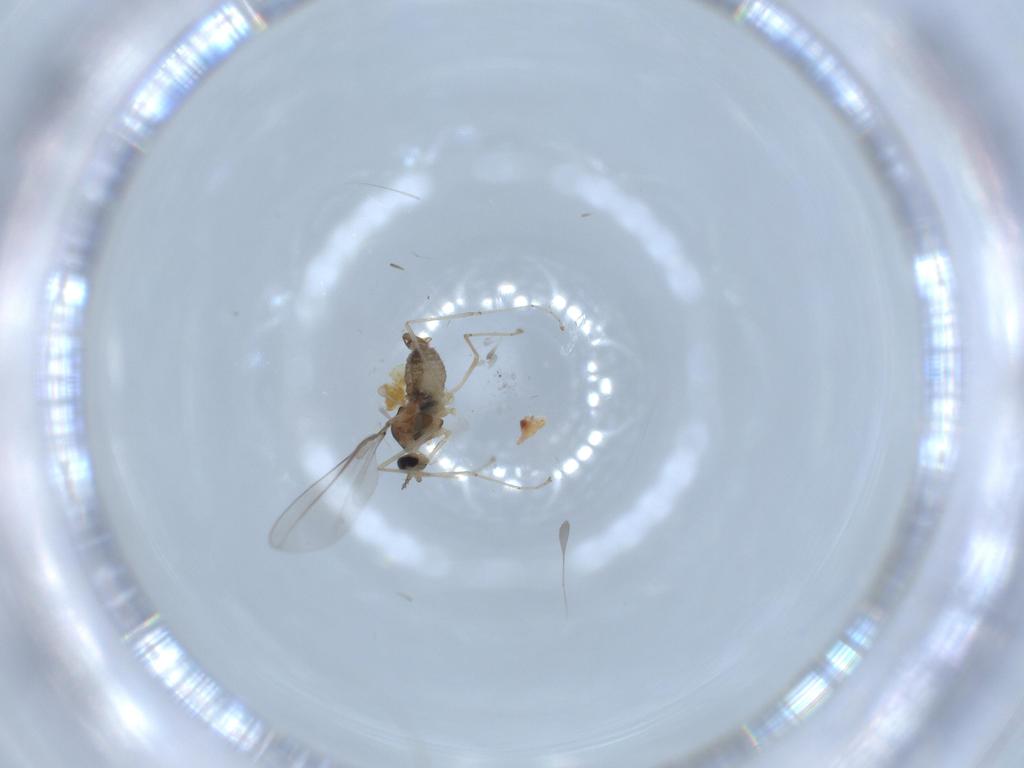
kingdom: Animalia
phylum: Arthropoda
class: Insecta
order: Diptera
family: Cecidomyiidae
